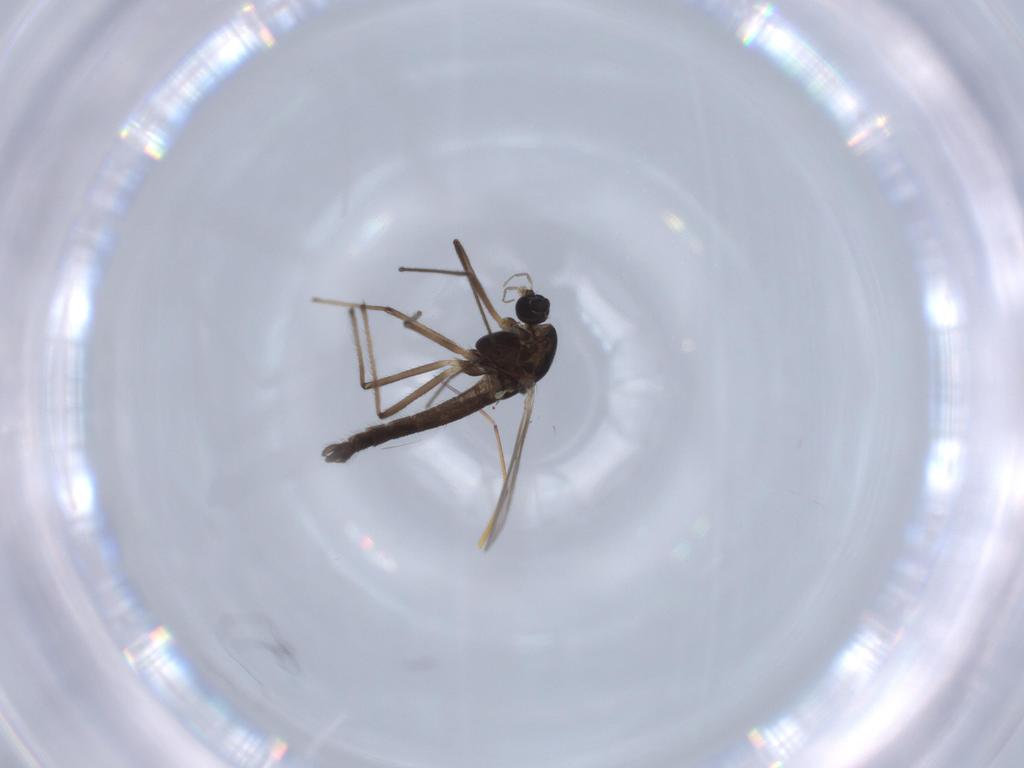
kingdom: Animalia
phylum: Arthropoda
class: Insecta
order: Diptera
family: Chironomidae
